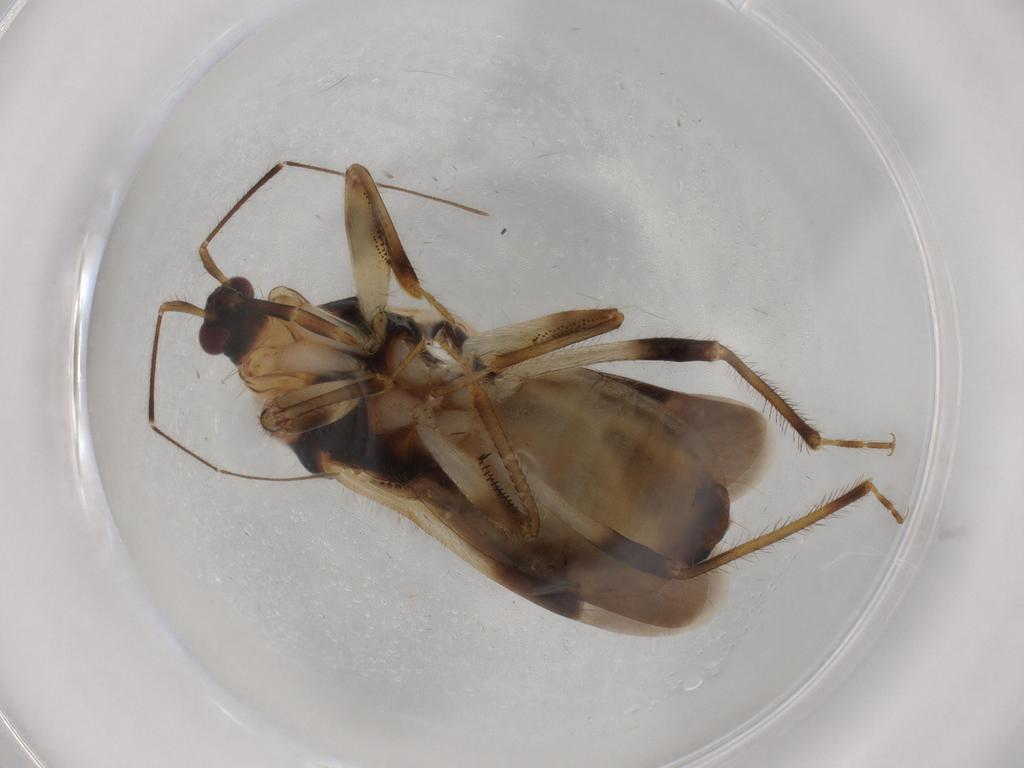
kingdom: Animalia
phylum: Arthropoda
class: Insecta
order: Hemiptera
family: Nabidae
